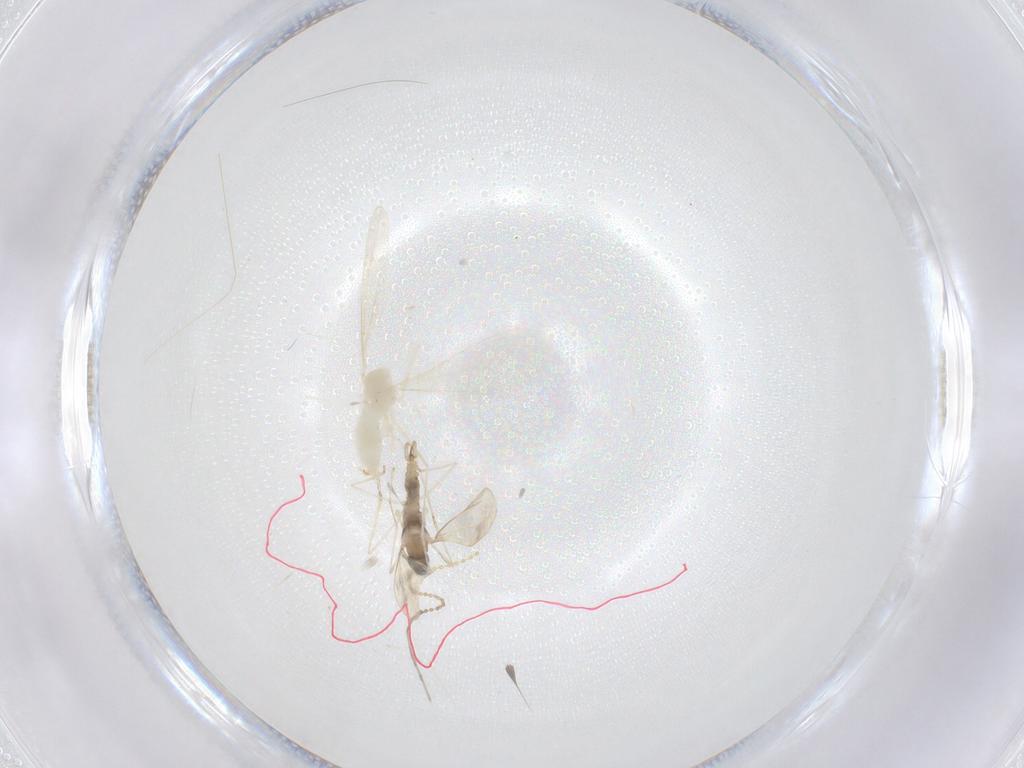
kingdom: Animalia
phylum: Arthropoda
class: Insecta
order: Diptera
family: Cecidomyiidae
